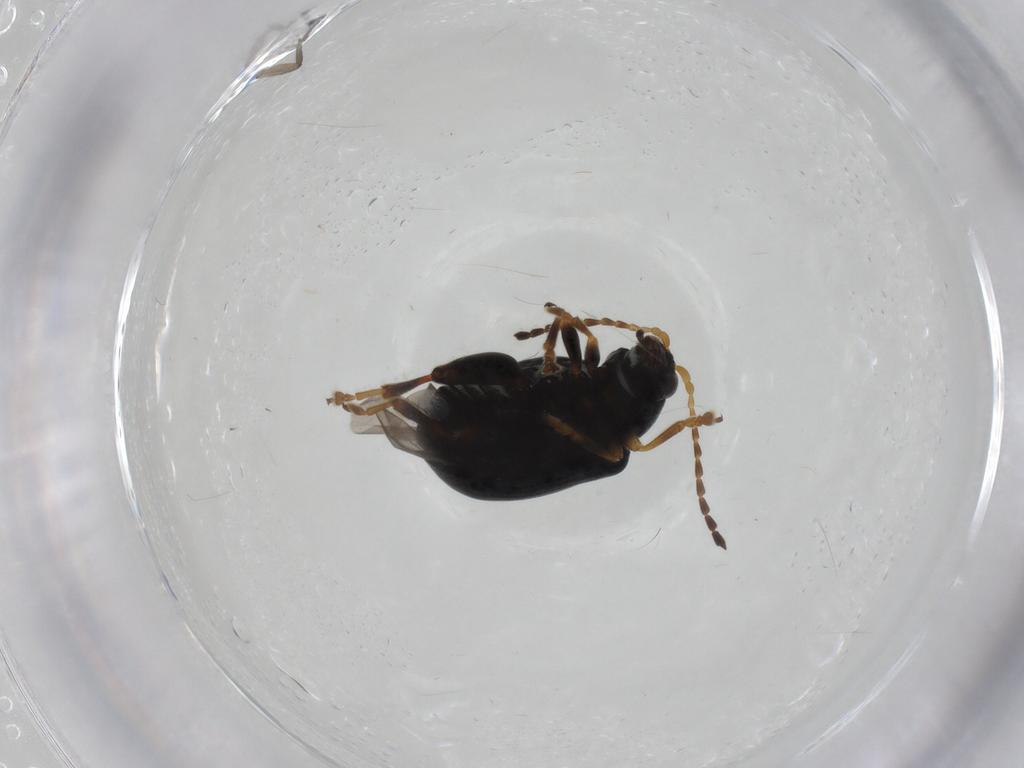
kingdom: Animalia
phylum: Arthropoda
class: Insecta
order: Coleoptera
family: Chrysomelidae
